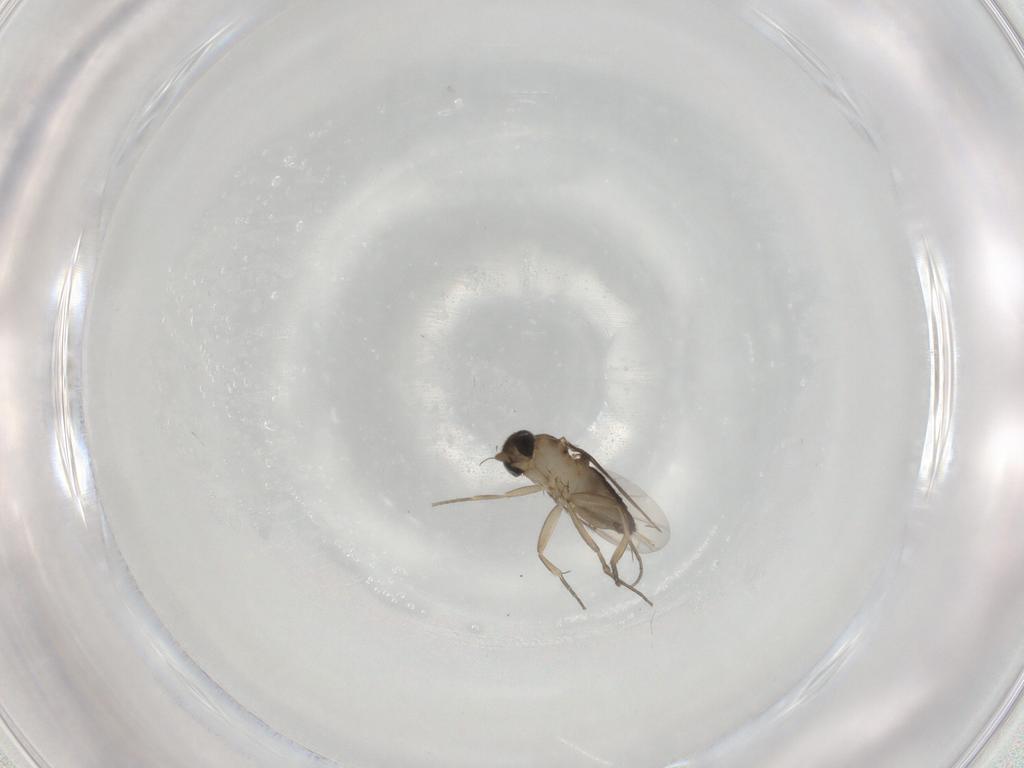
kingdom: Animalia
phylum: Arthropoda
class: Insecta
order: Diptera
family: Phoridae
